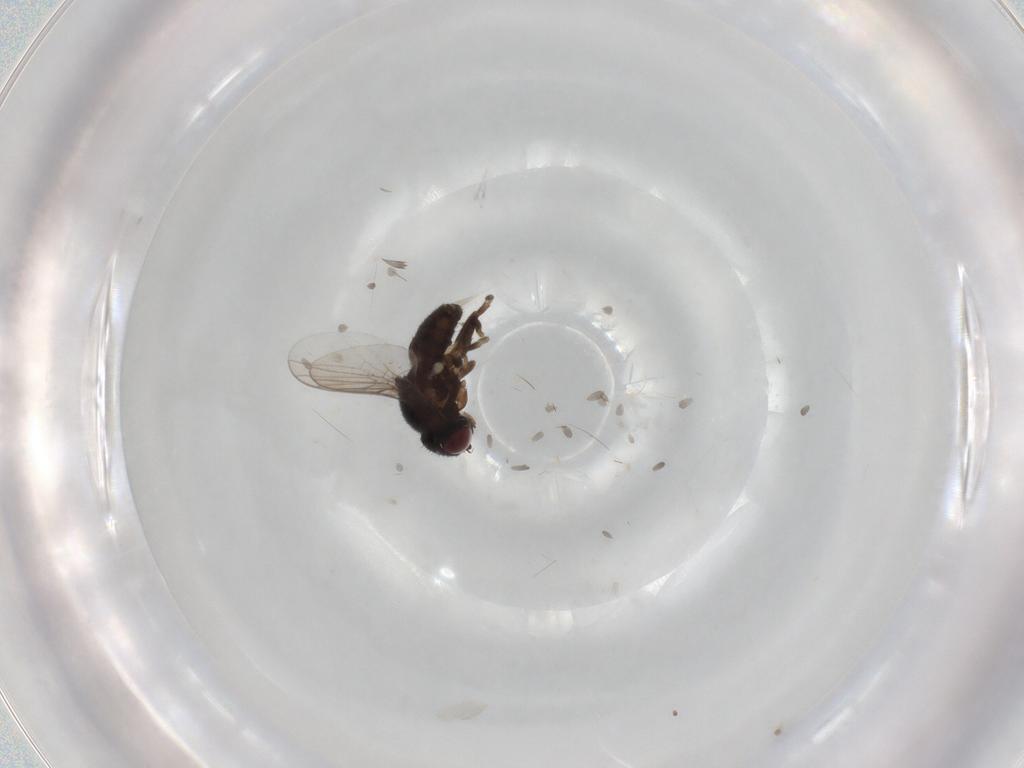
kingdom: Animalia
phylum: Arthropoda
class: Insecta
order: Diptera
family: Chloropidae
